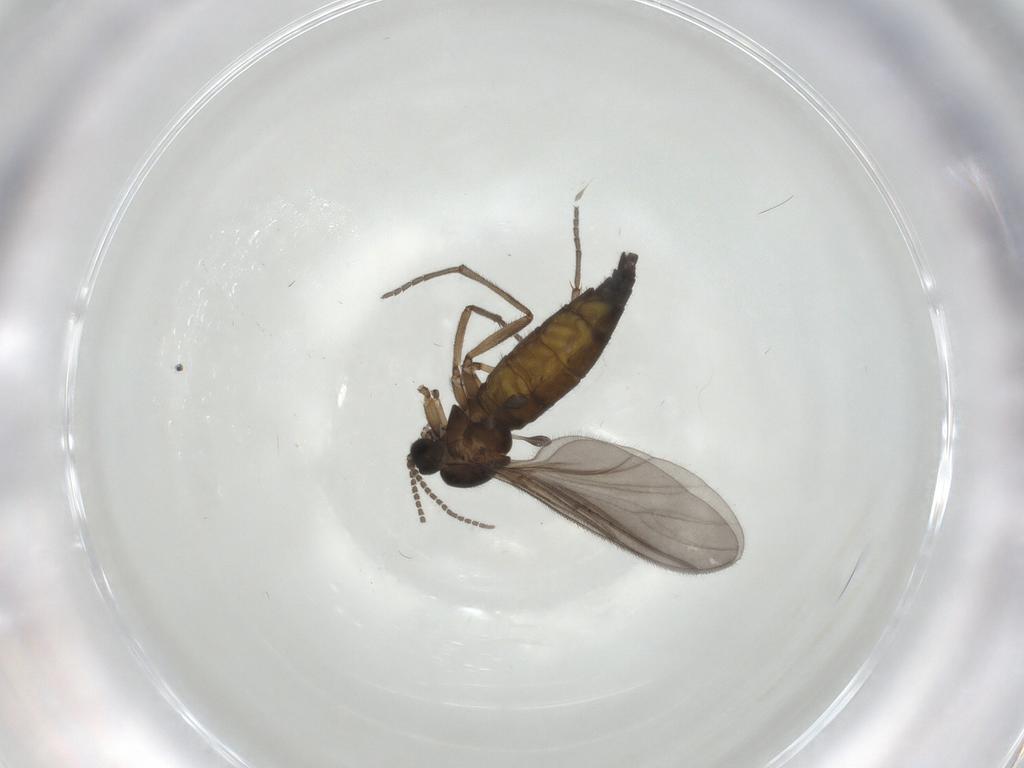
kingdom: Animalia
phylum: Arthropoda
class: Insecta
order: Diptera
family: Sciaridae
